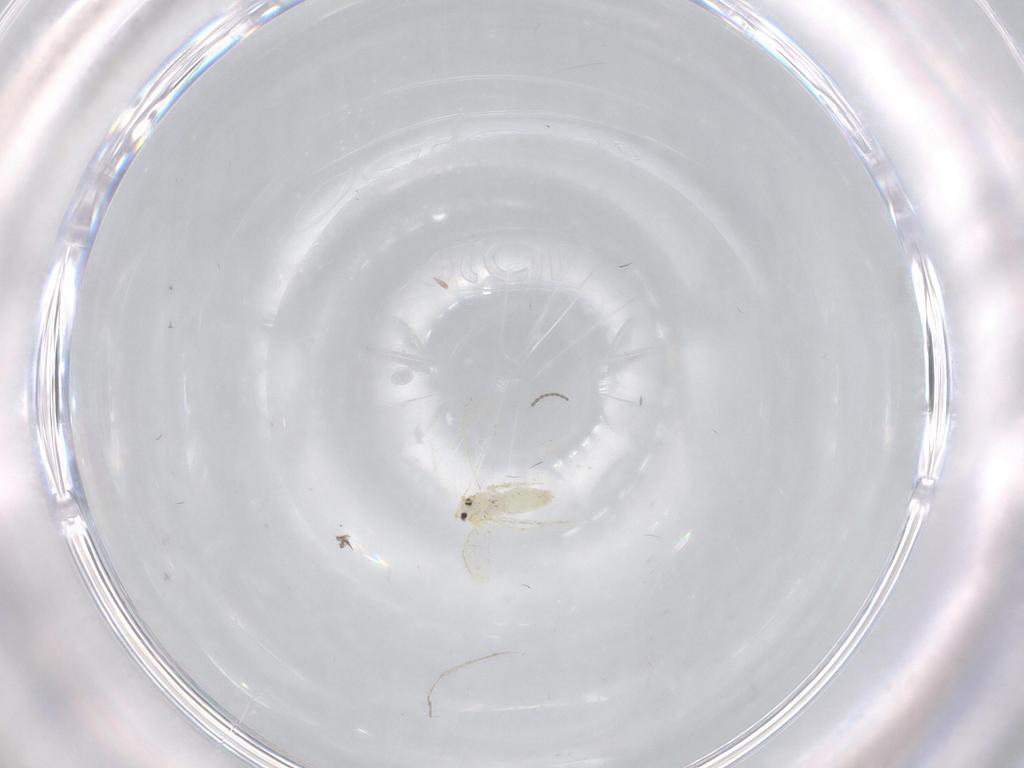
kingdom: Animalia
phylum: Arthropoda
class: Insecta
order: Hemiptera
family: Aleyrodidae
